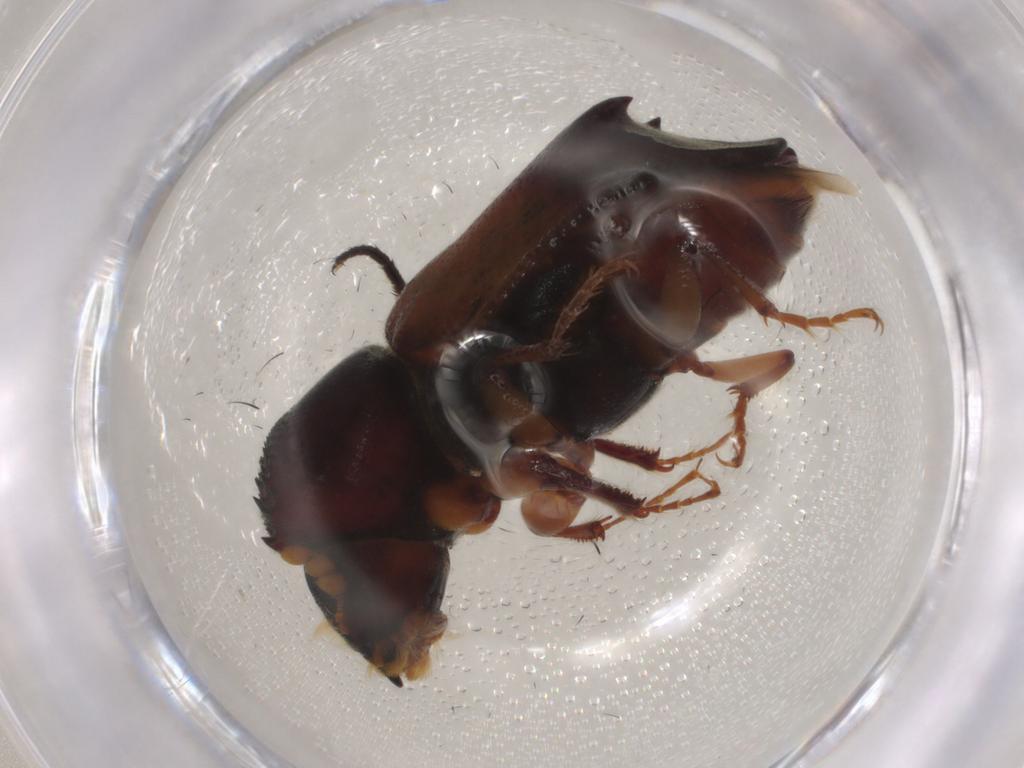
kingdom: Animalia
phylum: Arthropoda
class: Insecta
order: Coleoptera
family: Bostrichidae
